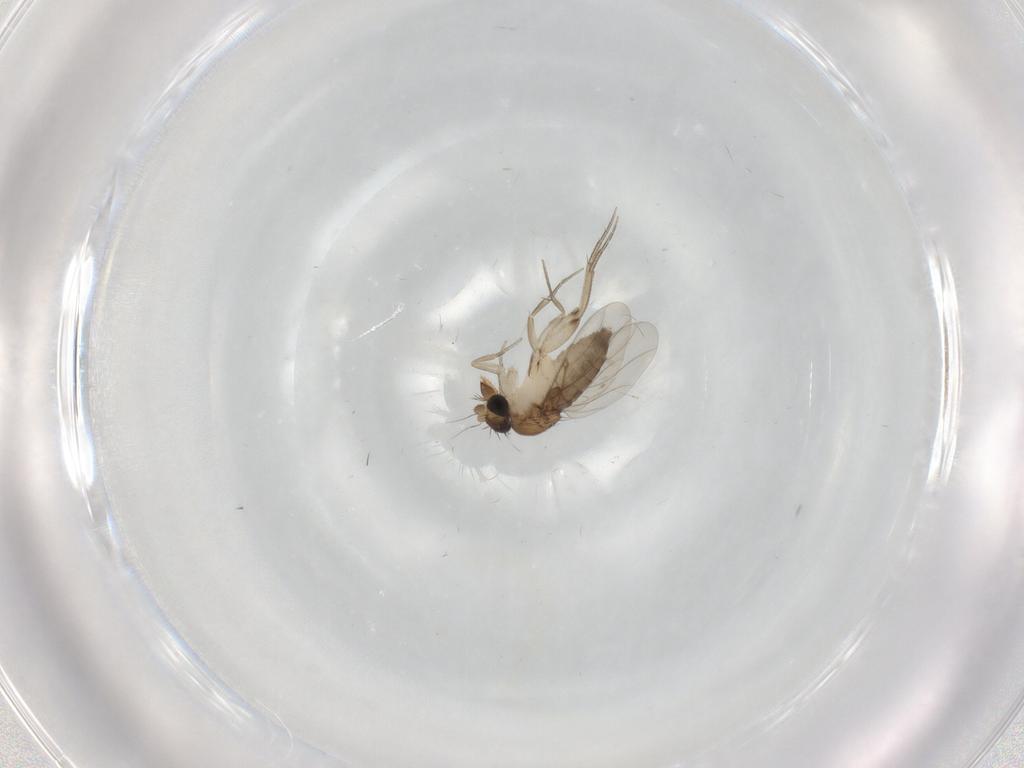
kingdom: Animalia
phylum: Arthropoda
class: Insecta
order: Diptera
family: Phoridae
